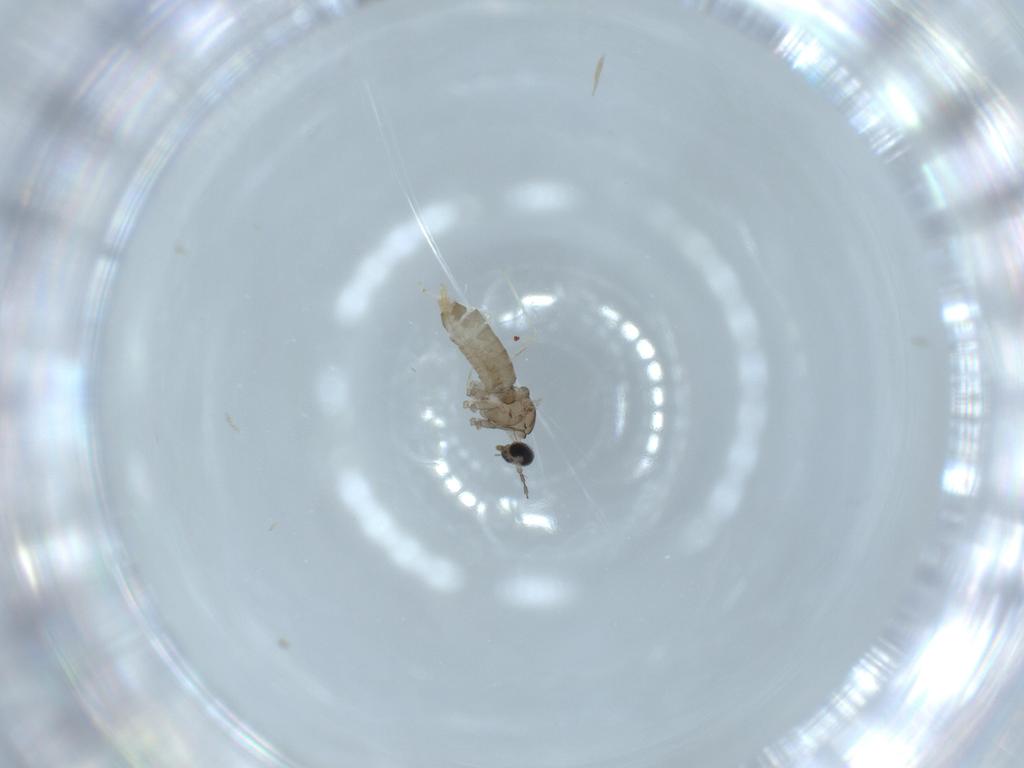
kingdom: Animalia
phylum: Arthropoda
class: Insecta
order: Diptera
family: Cecidomyiidae
